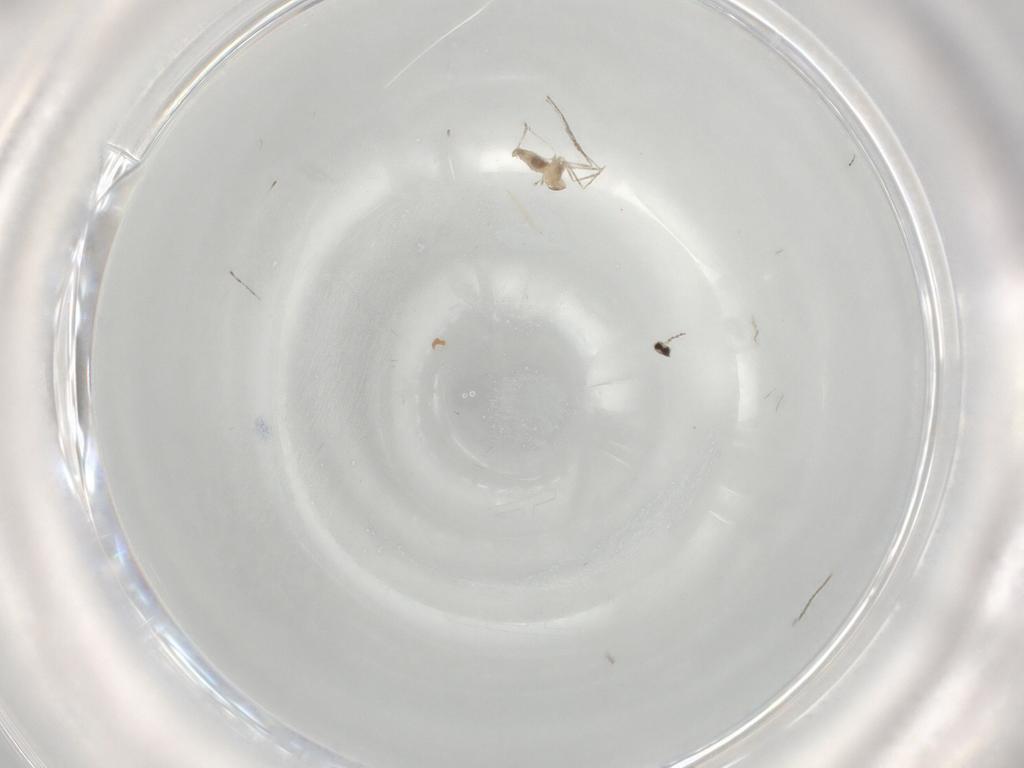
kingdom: Animalia
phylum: Arthropoda
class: Insecta
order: Diptera
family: Cecidomyiidae
